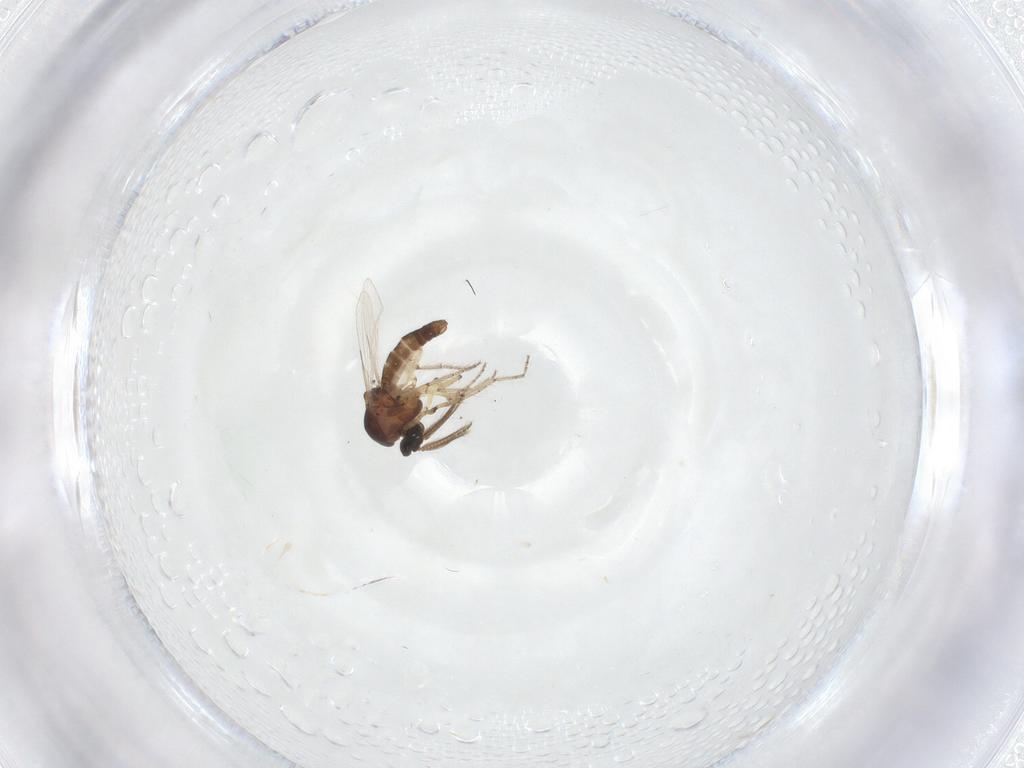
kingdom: Animalia
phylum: Arthropoda
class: Insecta
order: Diptera
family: Ceratopogonidae
